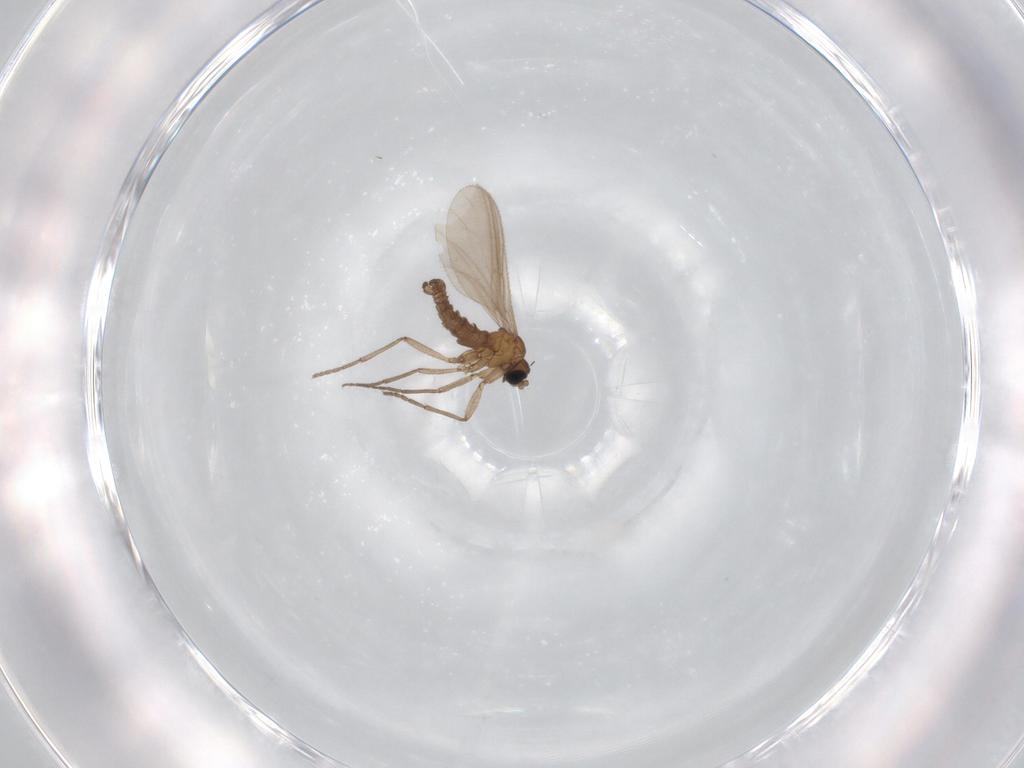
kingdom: Animalia
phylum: Arthropoda
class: Insecta
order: Diptera
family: Sciaridae
